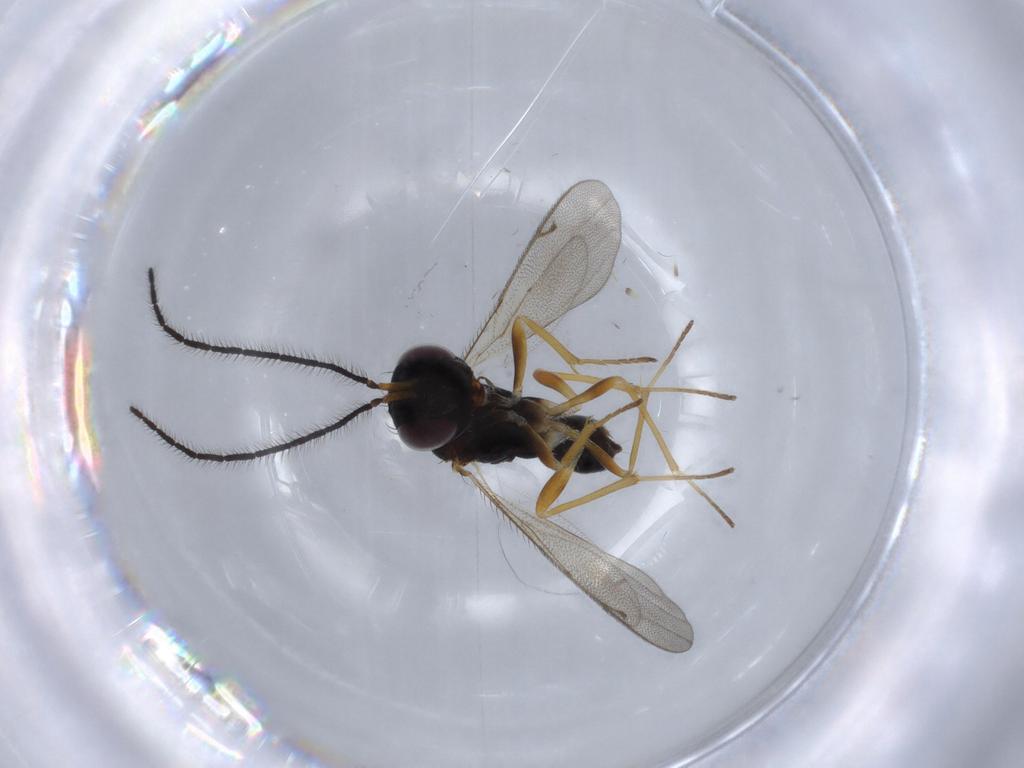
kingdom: Animalia
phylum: Arthropoda
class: Insecta
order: Hymenoptera
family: Diparidae
